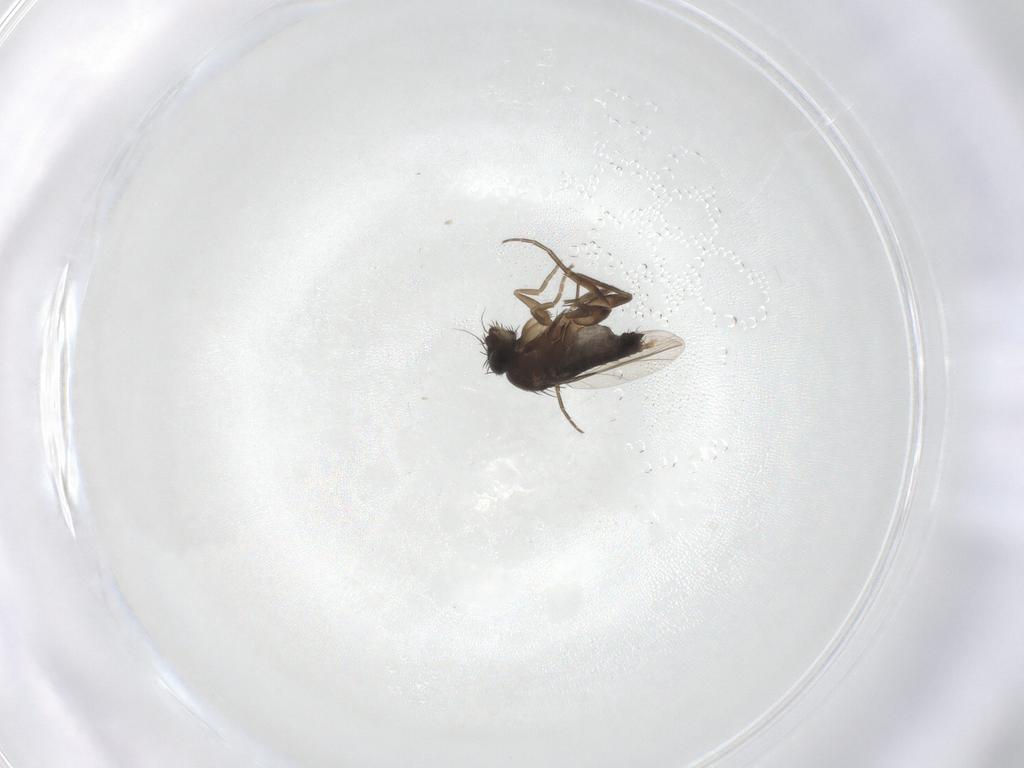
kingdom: Animalia
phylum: Arthropoda
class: Insecta
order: Diptera
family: Phoridae
